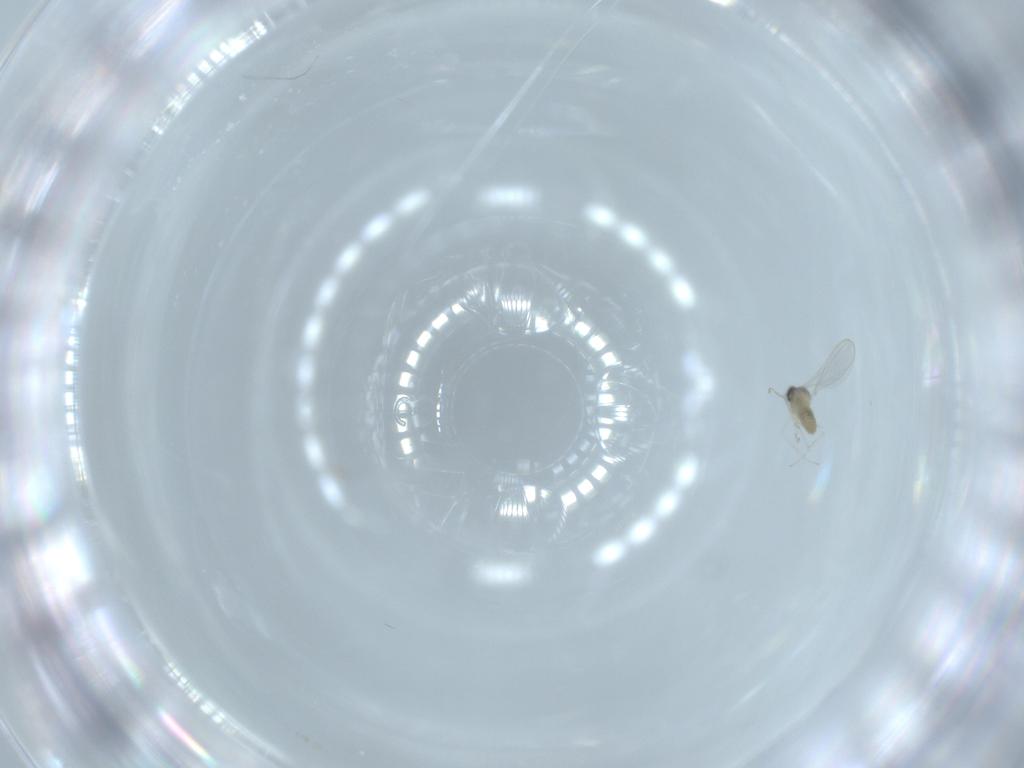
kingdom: Animalia
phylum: Arthropoda
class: Insecta
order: Diptera
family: Cecidomyiidae
